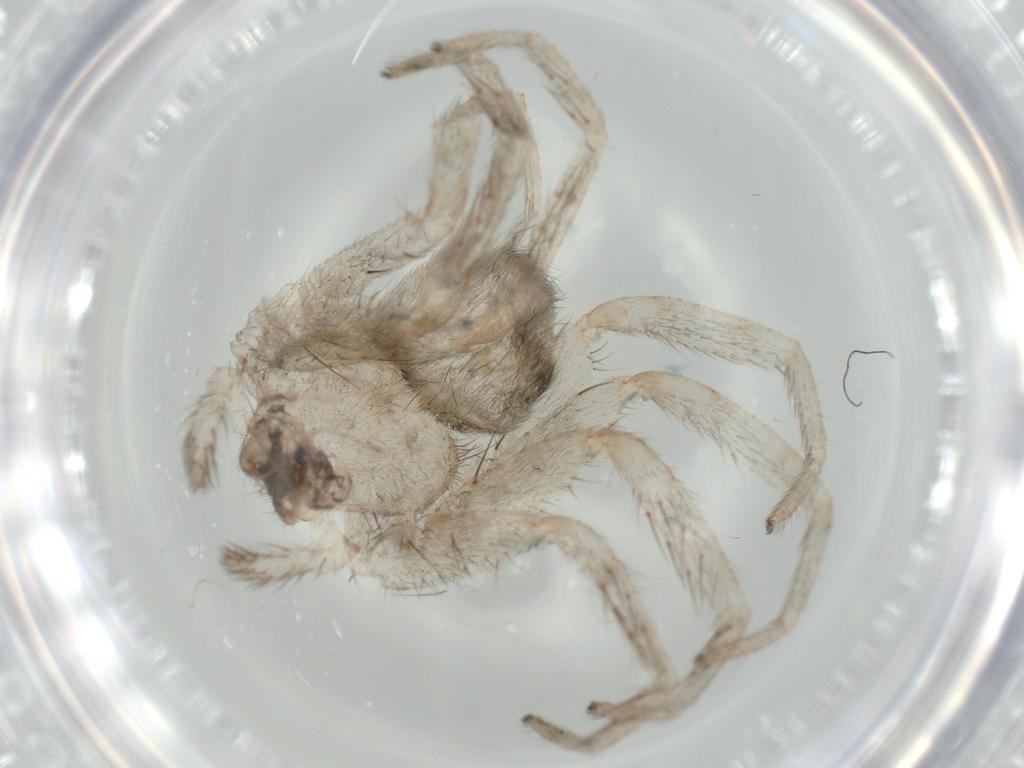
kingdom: Animalia
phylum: Arthropoda
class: Arachnida
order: Araneae
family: Selenopidae
